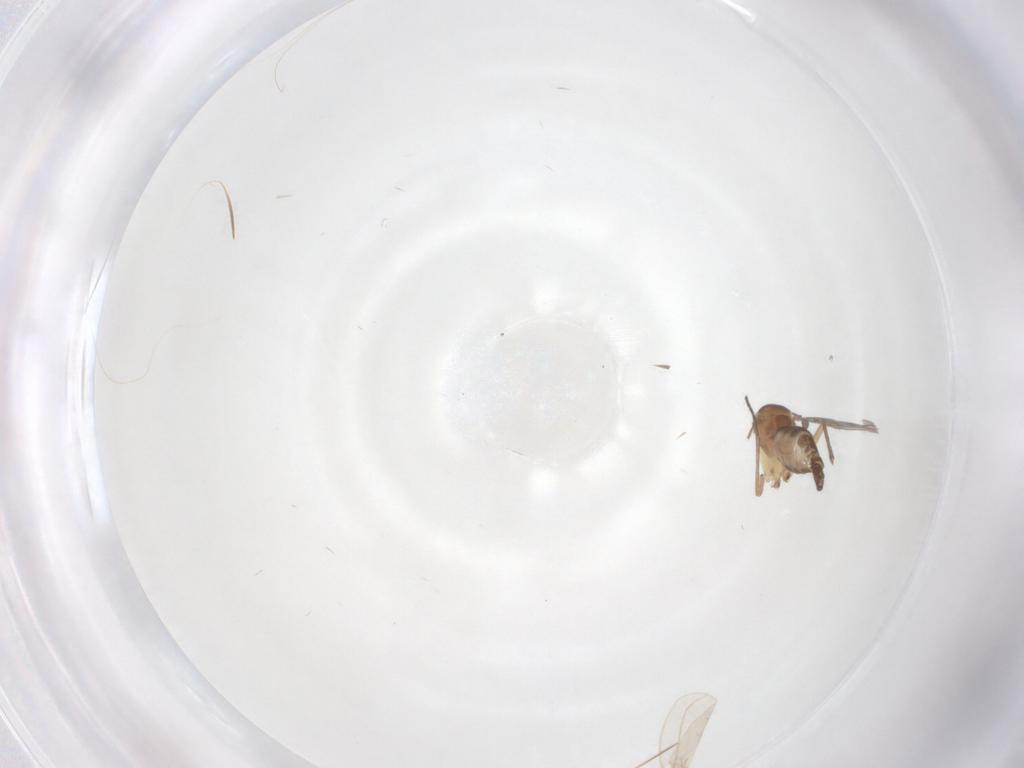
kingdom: Animalia
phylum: Arthropoda
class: Insecta
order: Diptera
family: Sciaridae
